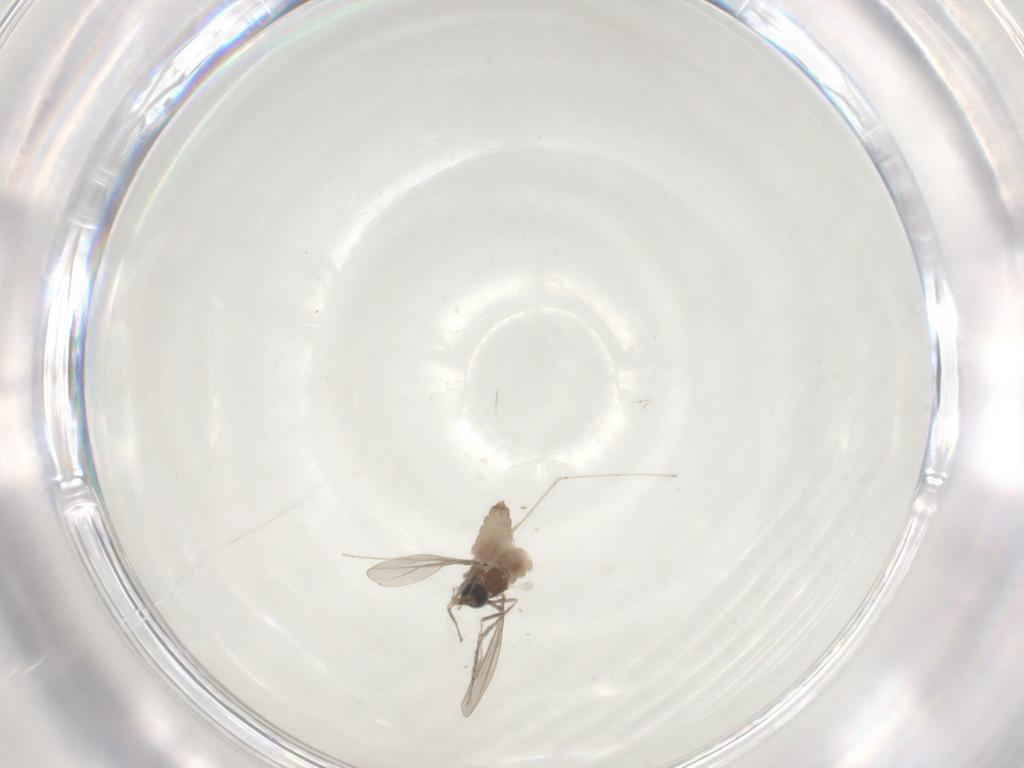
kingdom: Animalia
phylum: Arthropoda
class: Insecta
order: Diptera
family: Cecidomyiidae
